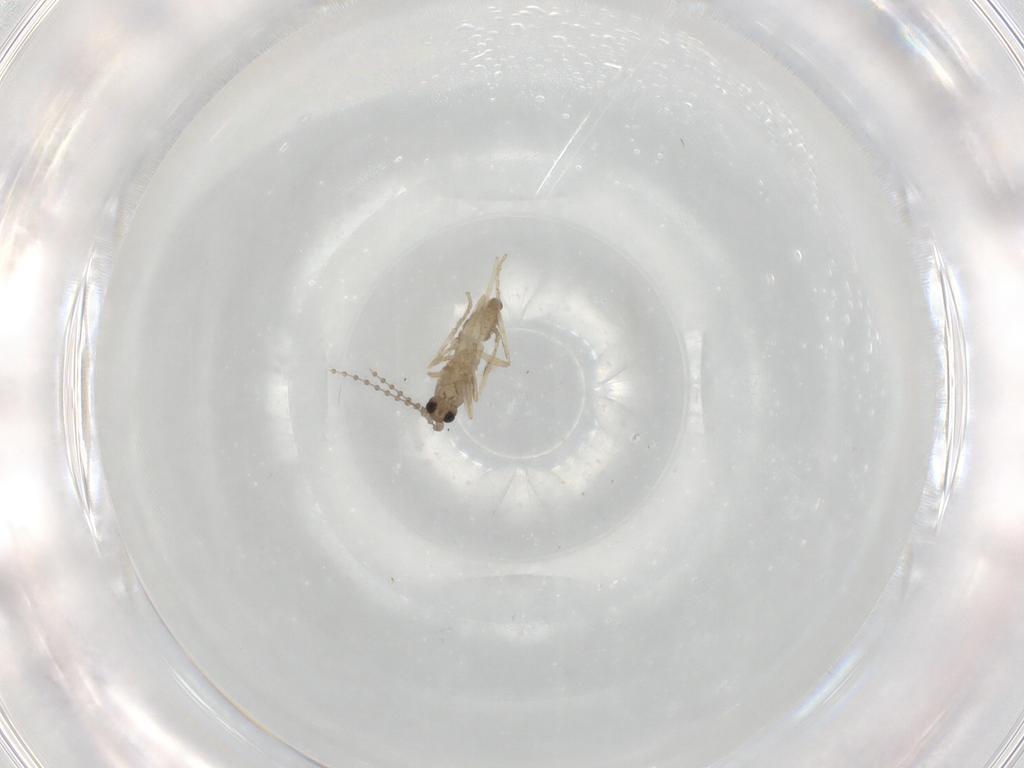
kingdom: Animalia
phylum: Arthropoda
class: Insecta
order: Diptera
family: Cecidomyiidae
